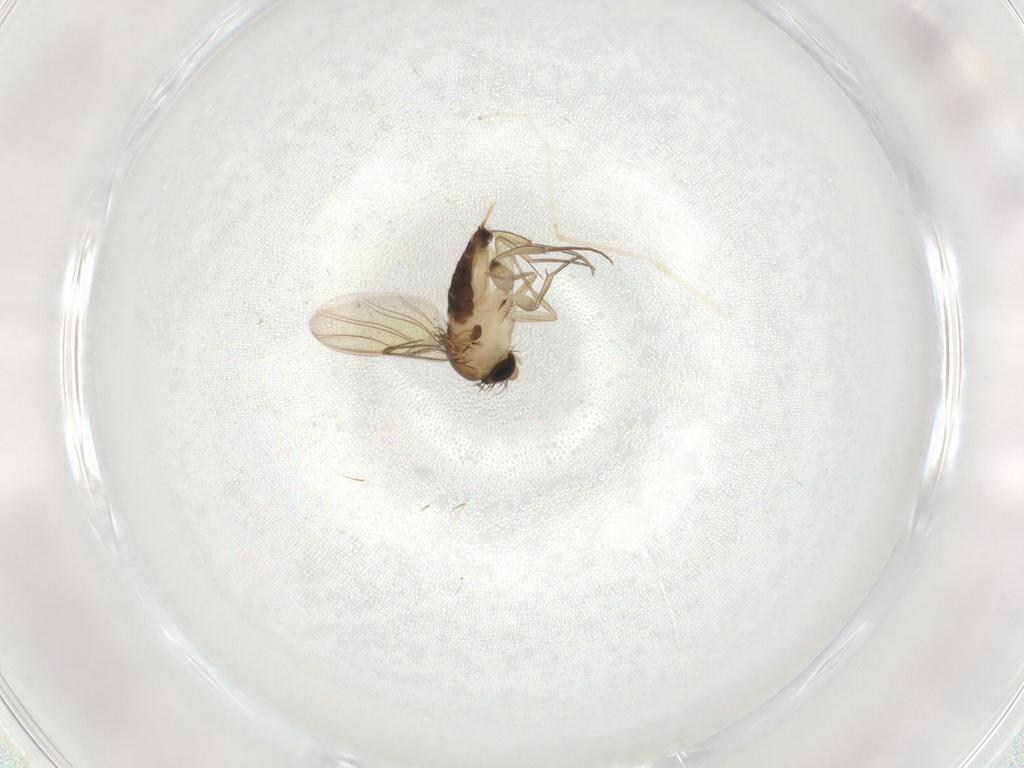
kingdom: Animalia
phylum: Arthropoda
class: Insecta
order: Diptera
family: Phoridae
